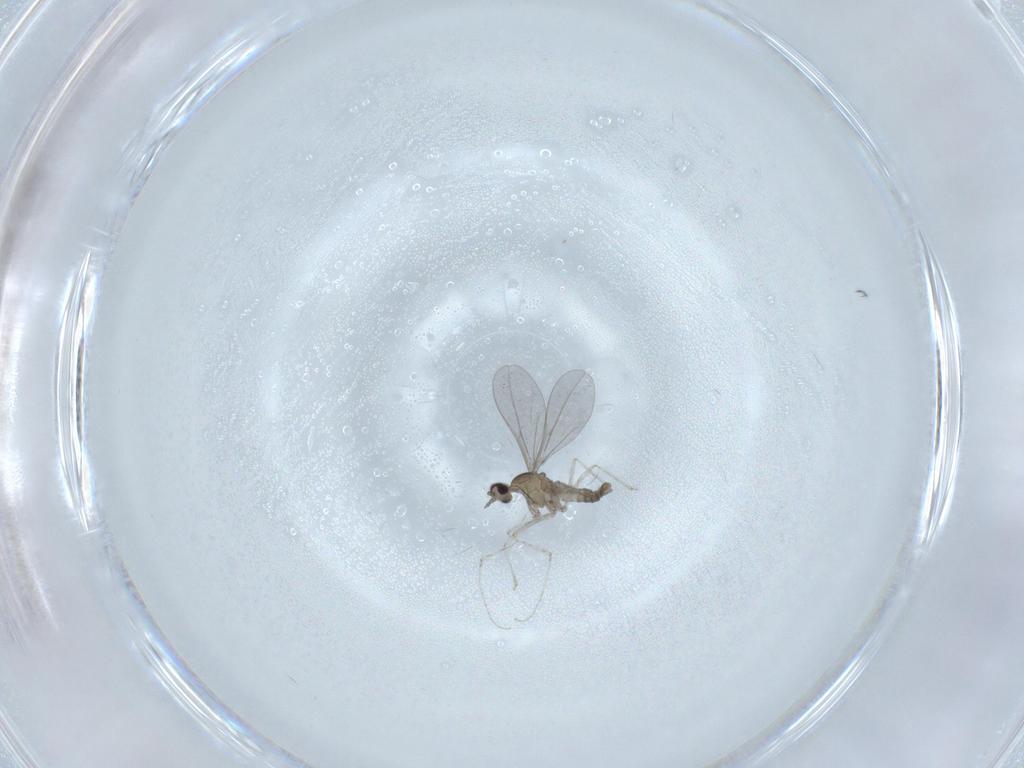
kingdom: Animalia
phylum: Arthropoda
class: Insecta
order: Diptera
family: Cecidomyiidae
